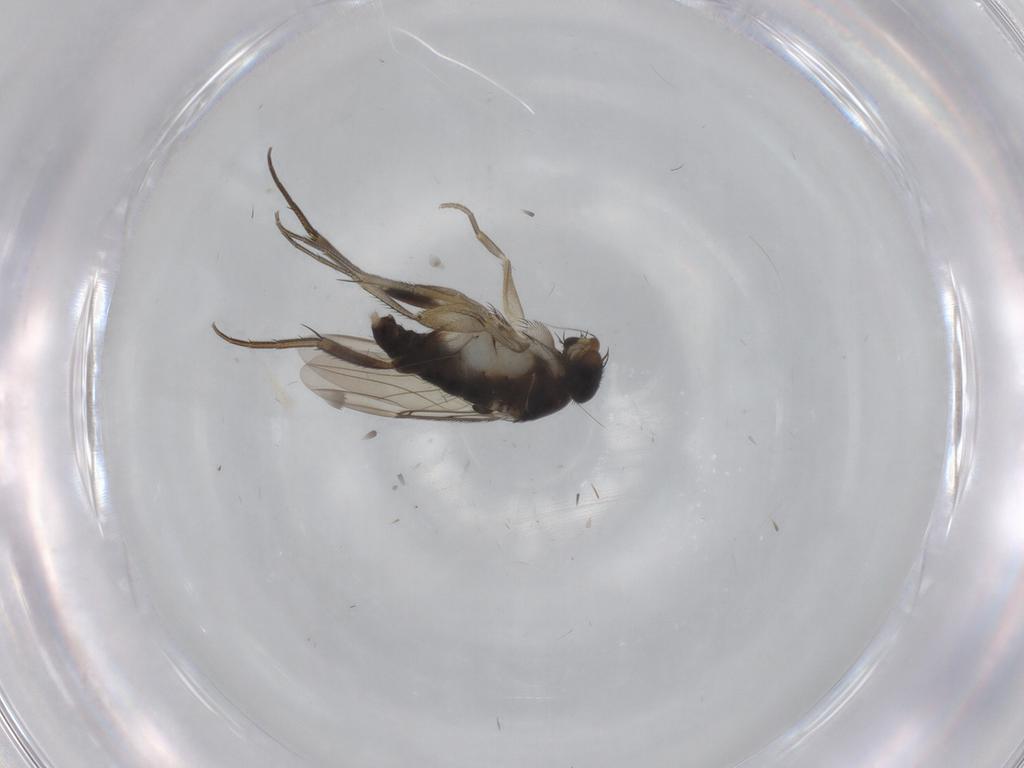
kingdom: Animalia
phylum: Arthropoda
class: Insecta
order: Diptera
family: Phoridae
